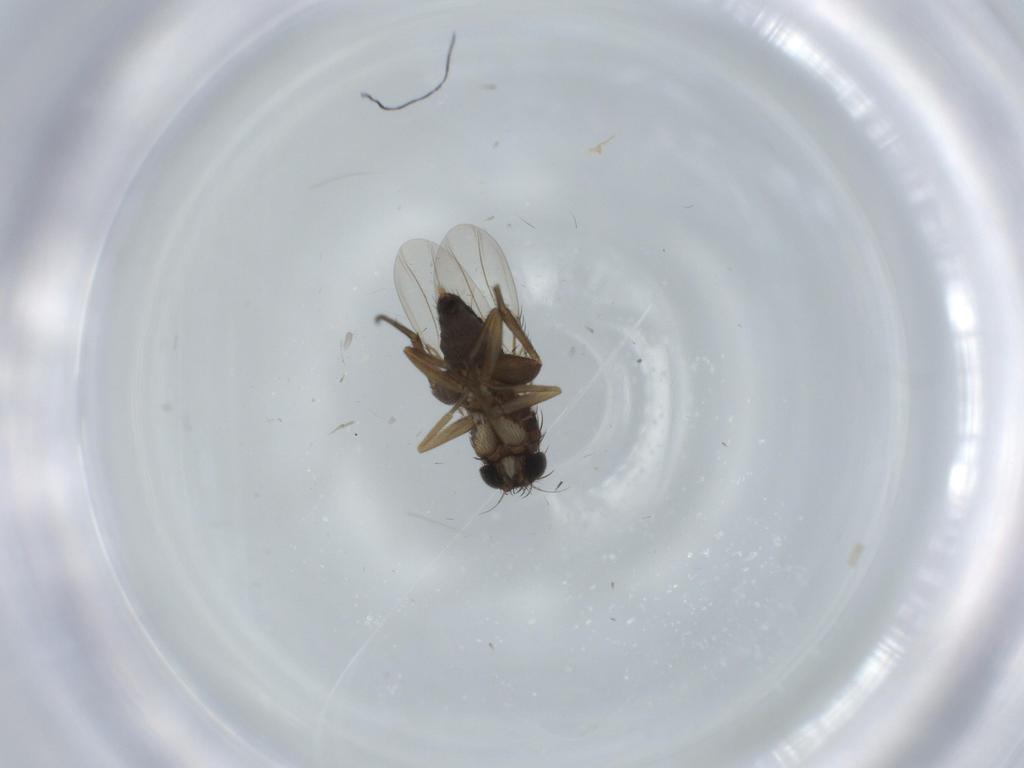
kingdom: Animalia
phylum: Arthropoda
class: Insecta
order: Diptera
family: Phoridae
